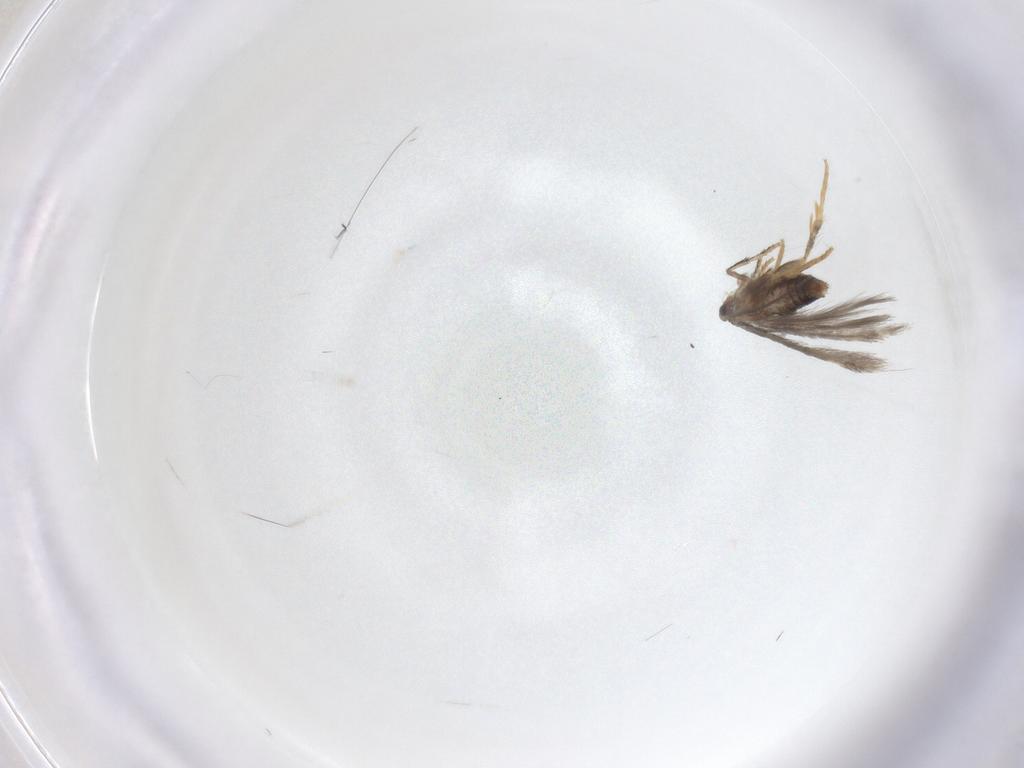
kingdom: Animalia
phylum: Arthropoda
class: Insecta
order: Lepidoptera
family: Nepticulidae
